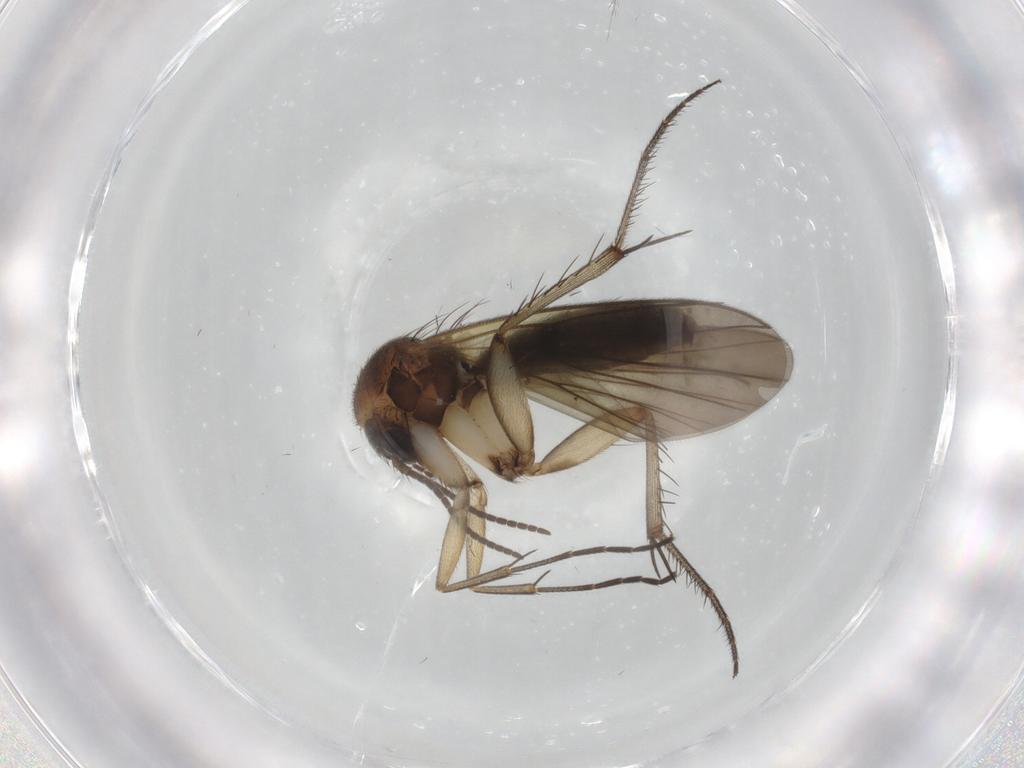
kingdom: Animalia
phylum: Arthropoda
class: Insecta
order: Diptera
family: Mycetophilidae
